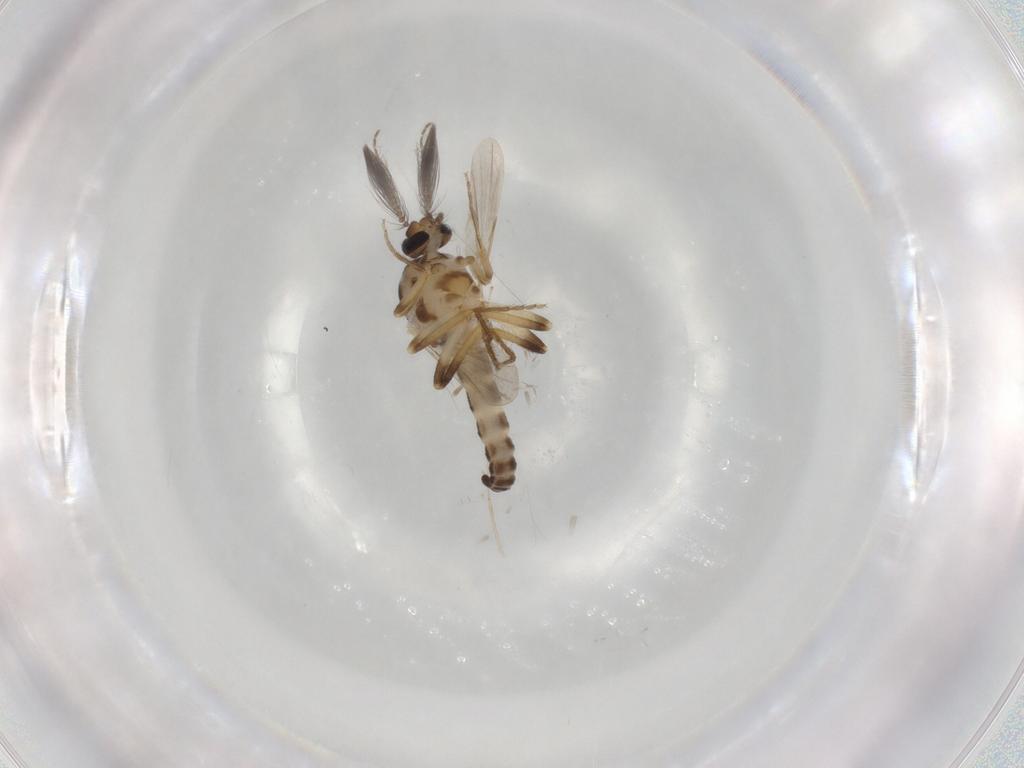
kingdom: Animalia
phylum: Arthropoda
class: Insecta
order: Diptera
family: Ceratopogonidae
